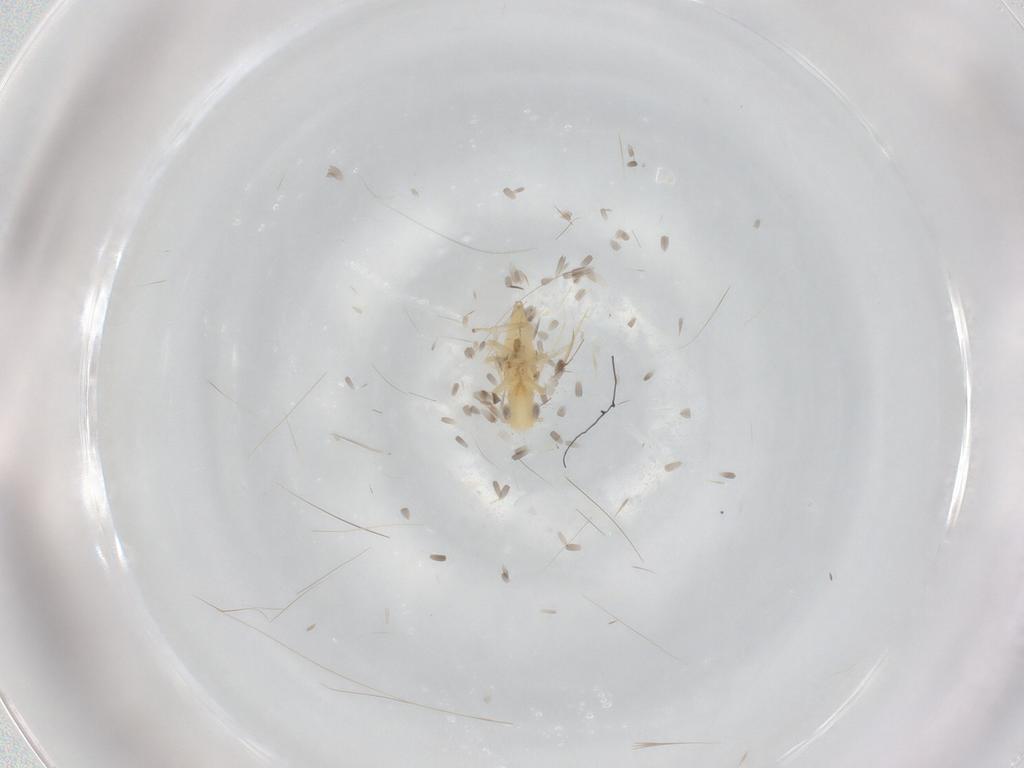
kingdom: Animalia
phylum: Arthropoda
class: Insecta
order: Hemiptera
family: Cicadellidae
